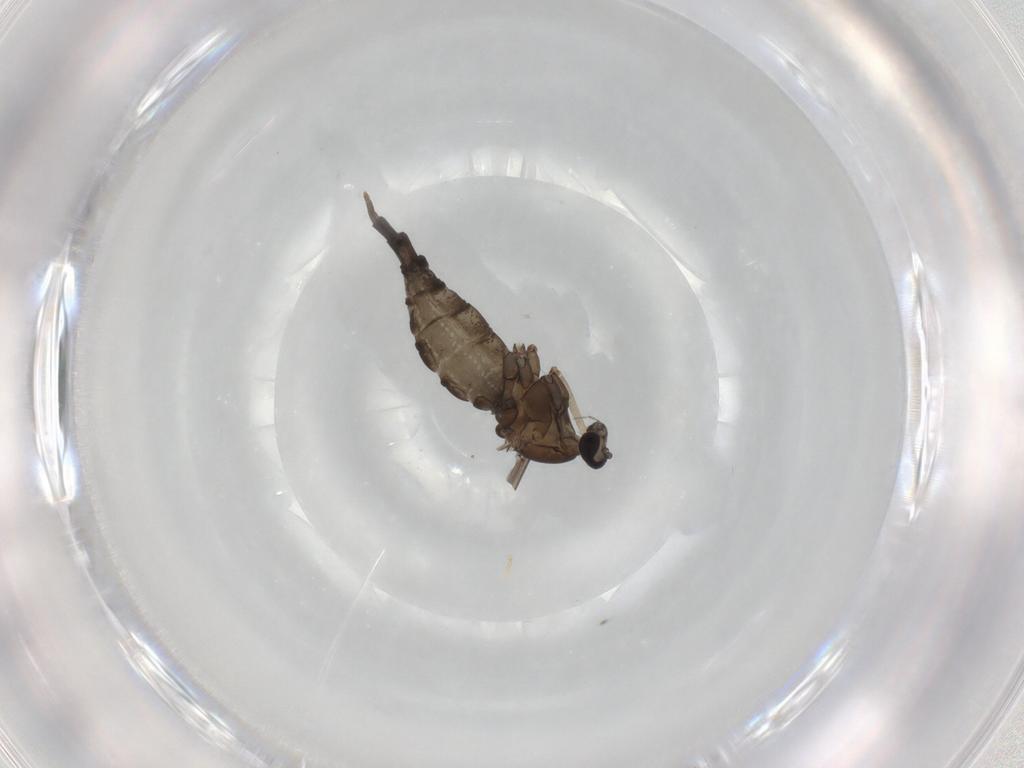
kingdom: Animalia
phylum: Arthropoda
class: Insecta
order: Diptera
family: Cecidomyiidae
